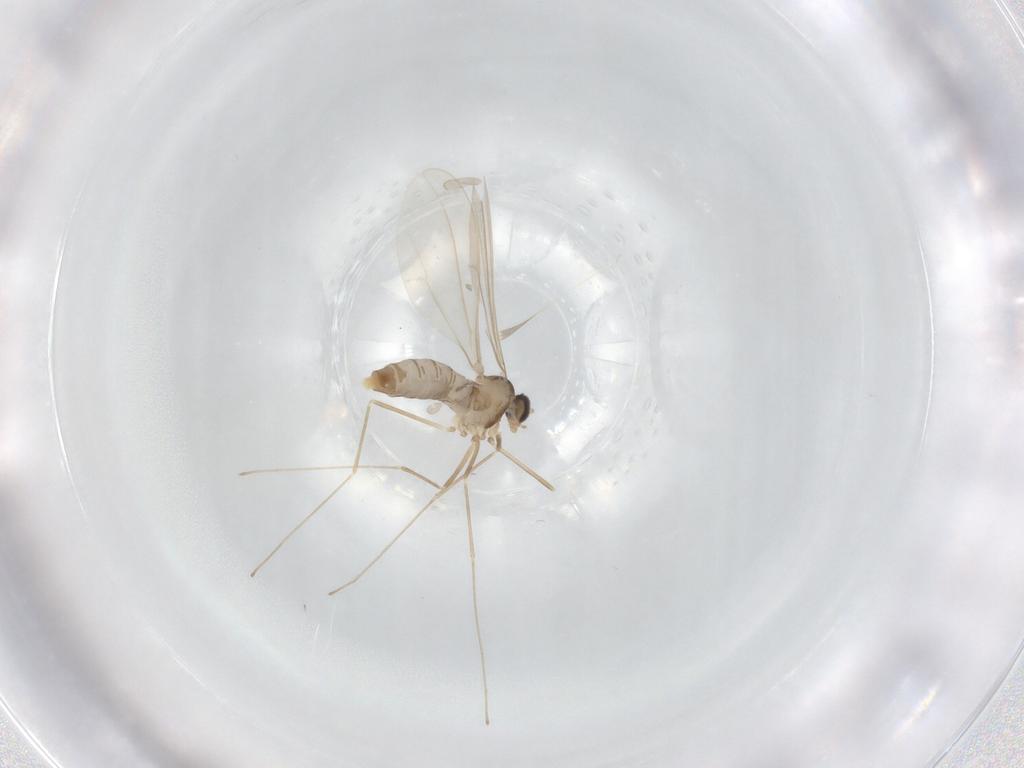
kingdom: Animalia
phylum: Arthropoda
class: Insecta
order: Diptera
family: Cecidomyiidae
